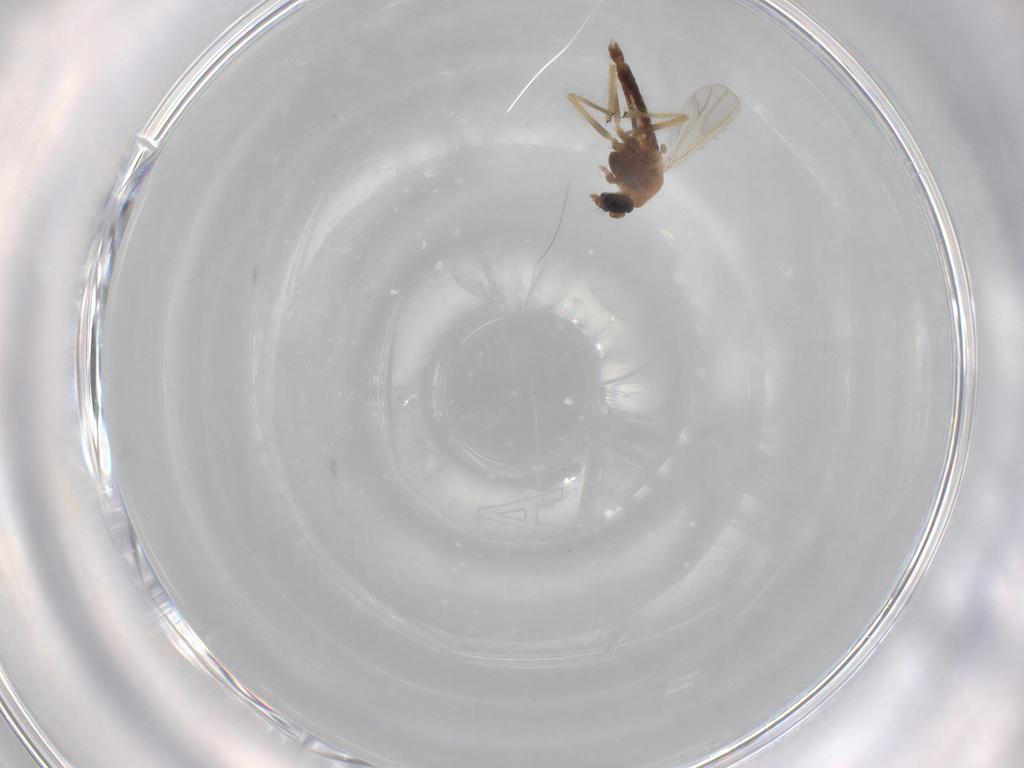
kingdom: Animalia
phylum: Arthropoda
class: Insecta
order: Diptera
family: Chironomidae
